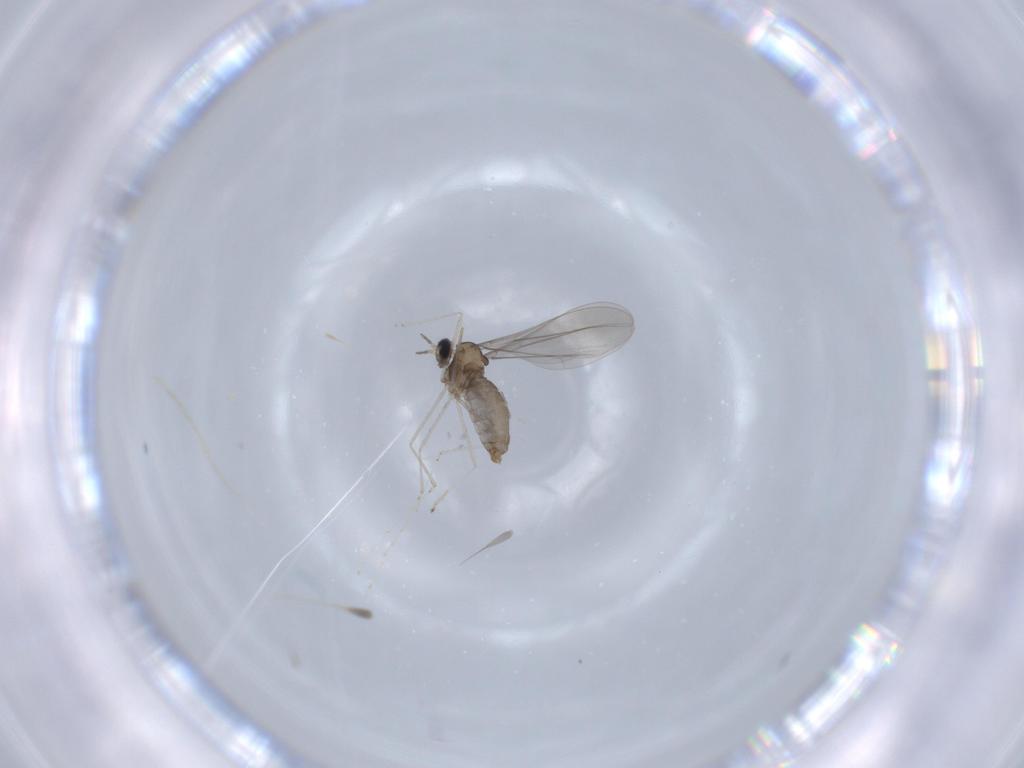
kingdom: Animalia
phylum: Arthropoda
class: Insecta
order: Diptera
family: Cecidomyiidae
